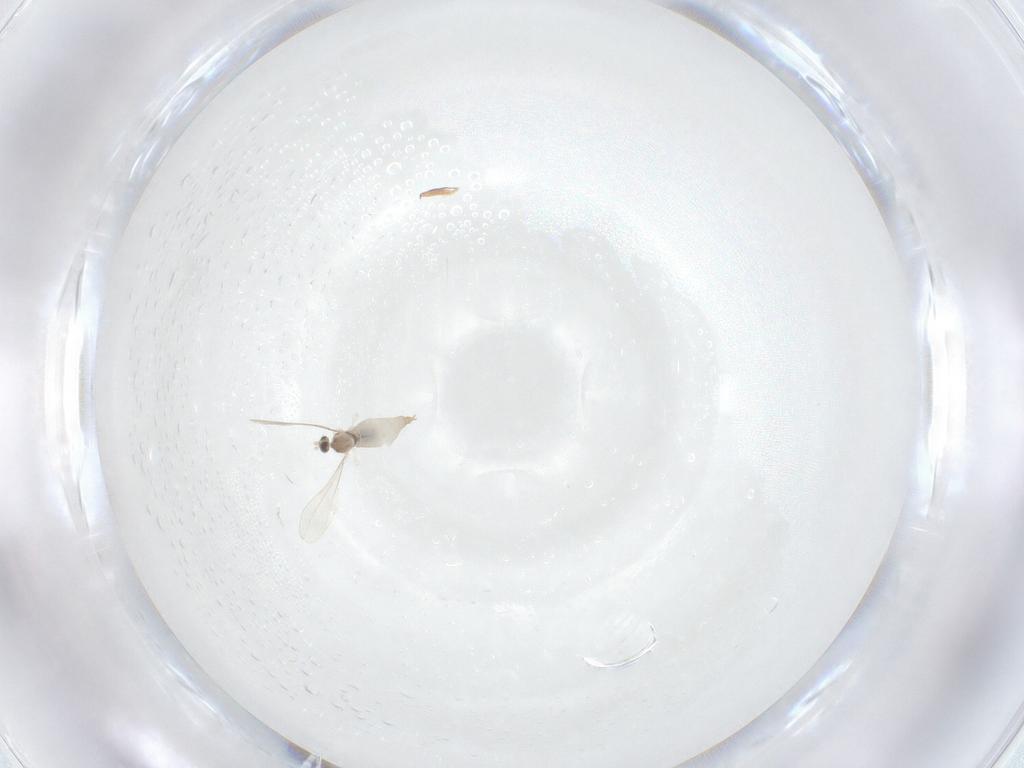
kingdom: Animalia
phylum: Arthropoda
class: Insecta
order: Diptera
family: Cecidomyiidae
